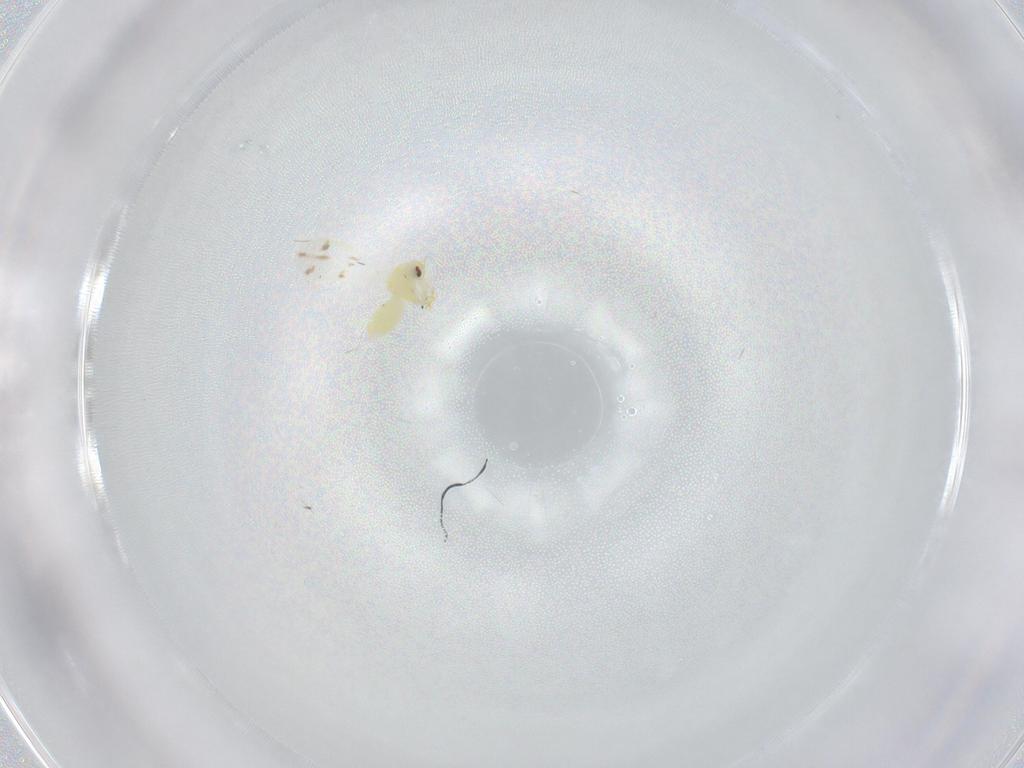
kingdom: Animalia
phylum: Arthropoda
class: Insecta
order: Hemiptera
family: Aleyrodidae
